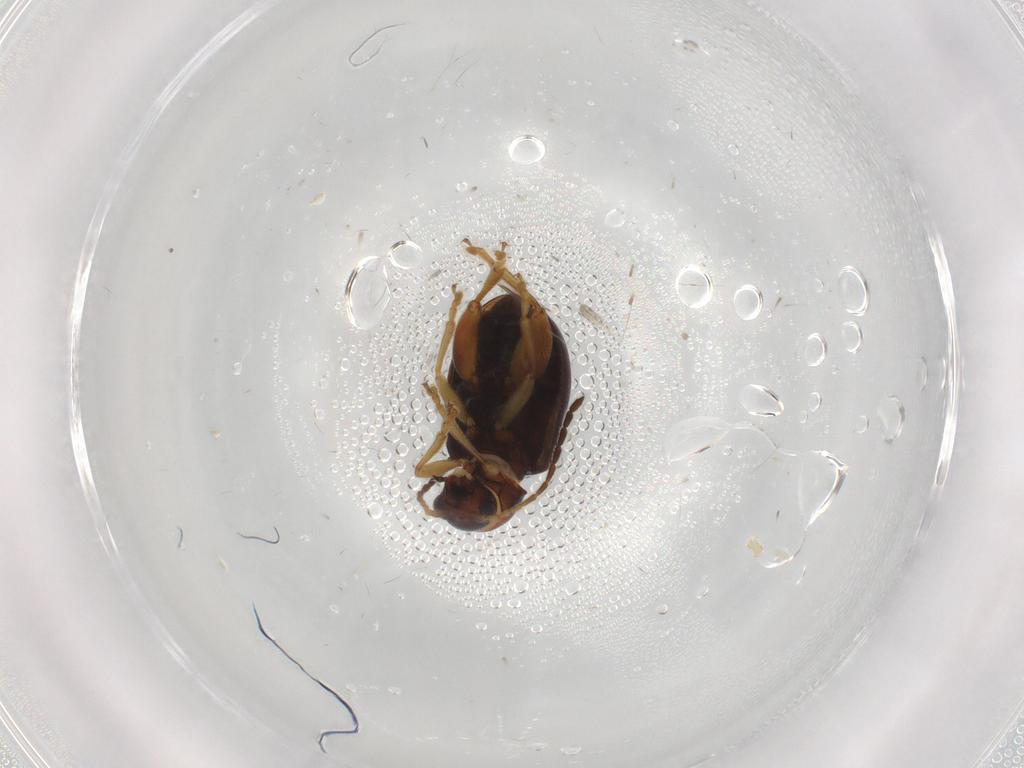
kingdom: Animalia
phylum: Arthropoda
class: Insecta
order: Coleoptera
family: Chrysomelidae
